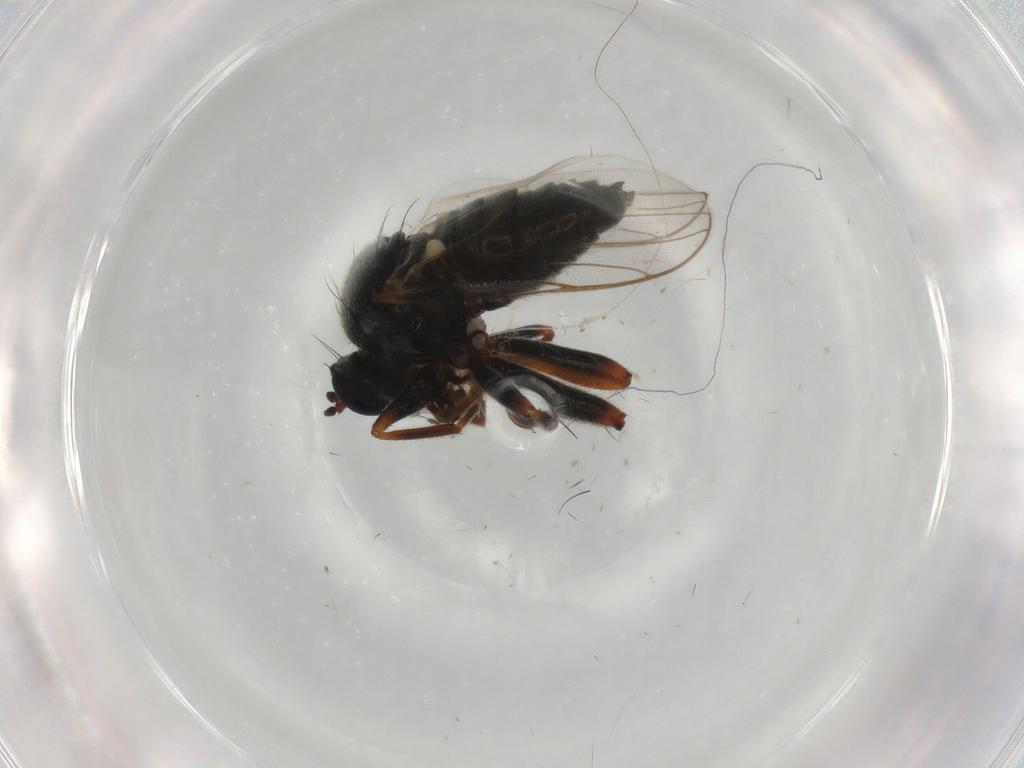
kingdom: Animalia
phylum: Arthropoda
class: Insecta
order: Diptera
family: Hybotidae
